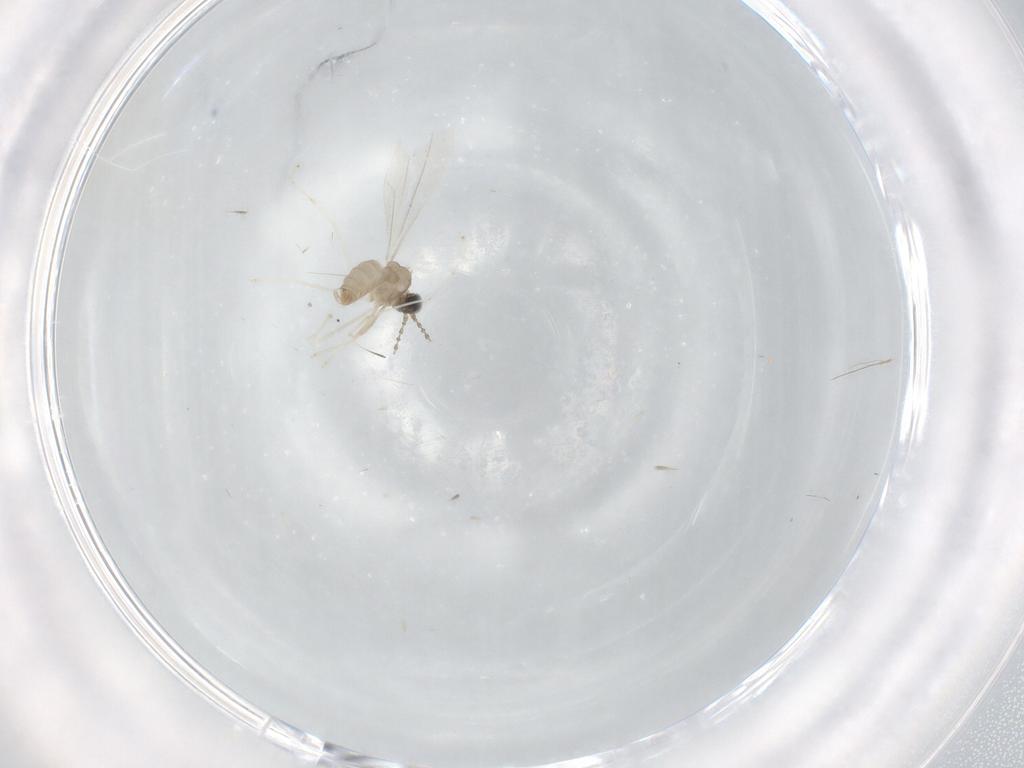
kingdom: Animalia
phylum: Arthropoda
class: Insecta
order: Diptera
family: Cecidomyiidae
